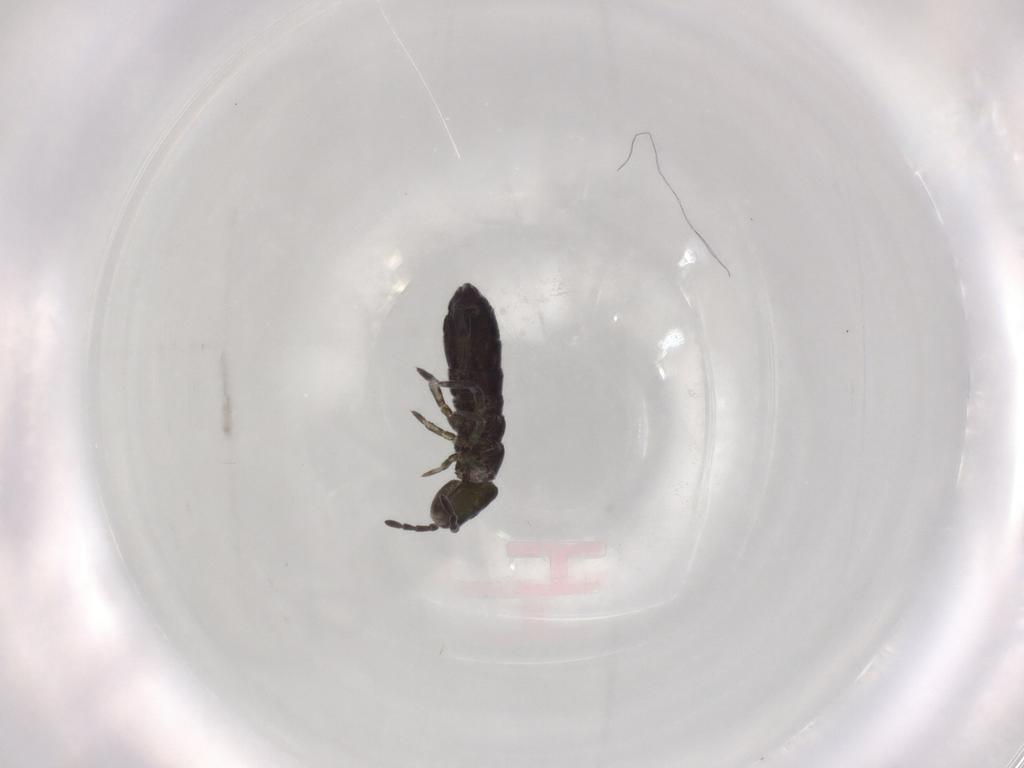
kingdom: Animalia
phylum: Arthropoda
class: Collembola
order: Entomobryomorpha
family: Isotomidae
